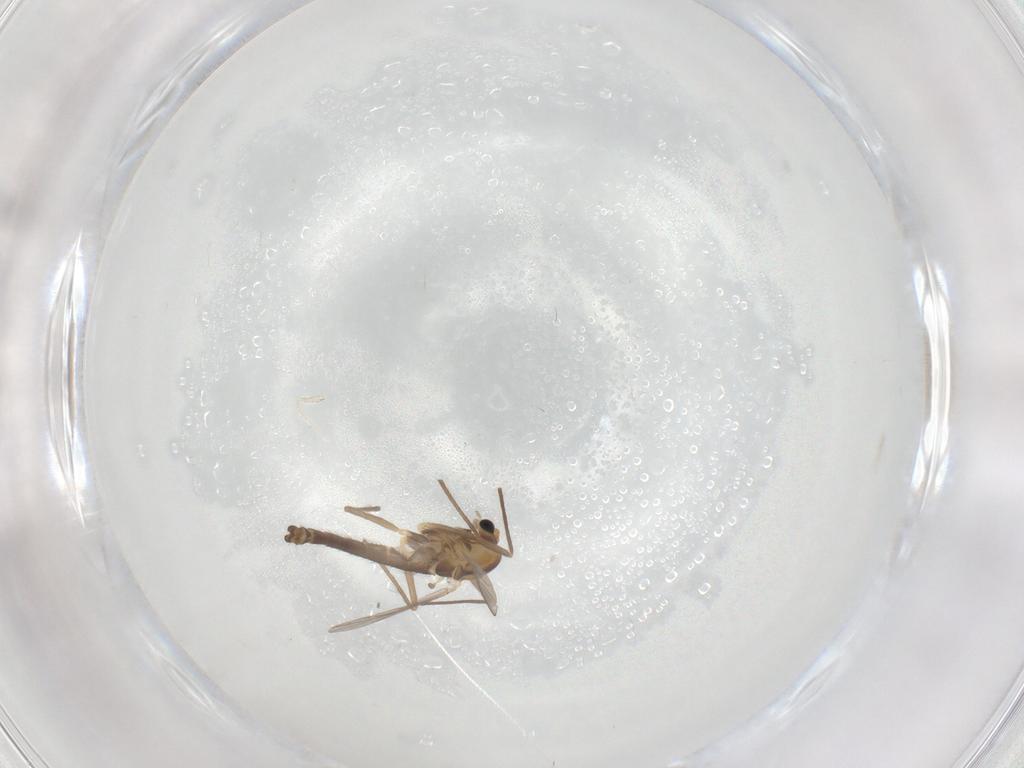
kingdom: Animalia
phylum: Arthropoda
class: Insecta
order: Diptera
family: Chironomidae
